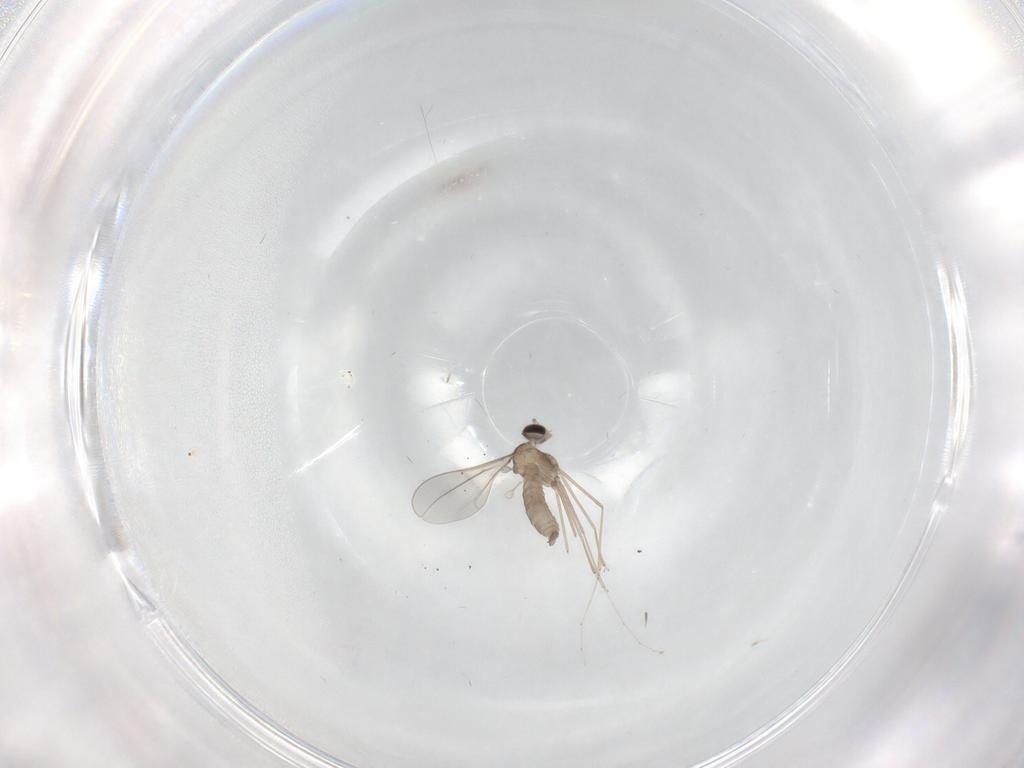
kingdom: Animalia
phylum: Arthropoda
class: Insecta
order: Diptera
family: Cecidomyiidae
